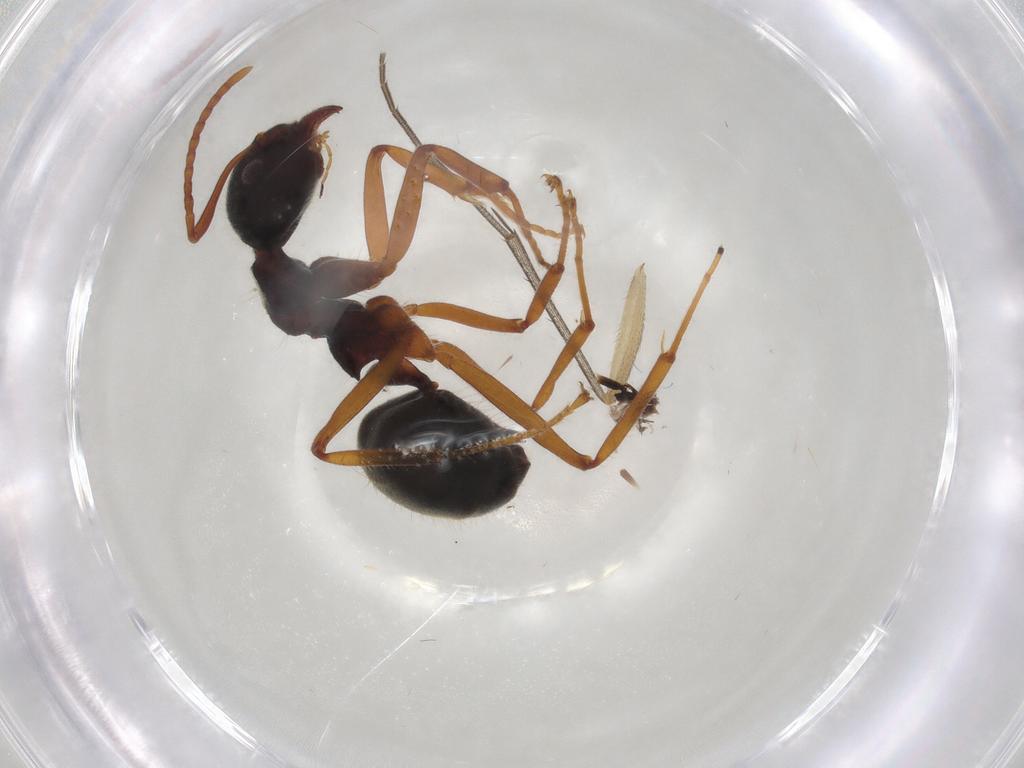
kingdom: Animalia
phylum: Arthropoda
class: Insecta
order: Hymenoptera
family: Formicidae
